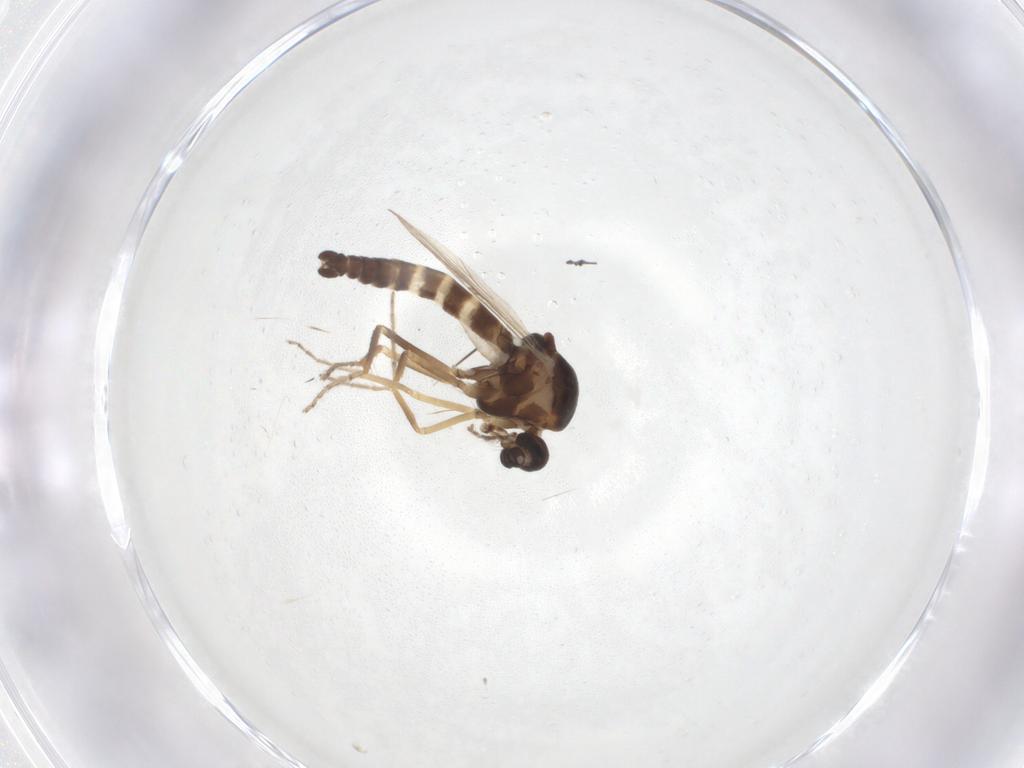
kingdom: Animalia
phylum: Arthropoda
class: Insecta
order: Diptera
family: Ceratopogonidae
